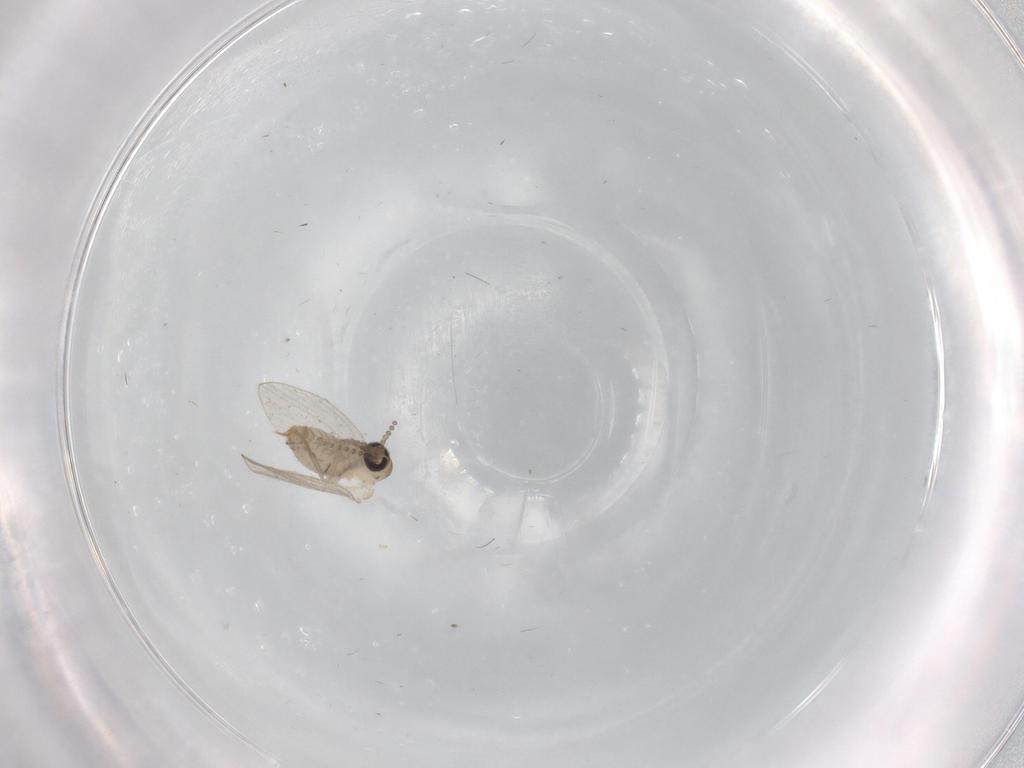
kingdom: Animalia
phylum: Arthropoda
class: Insecta
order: Diptera
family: Psychodidae
